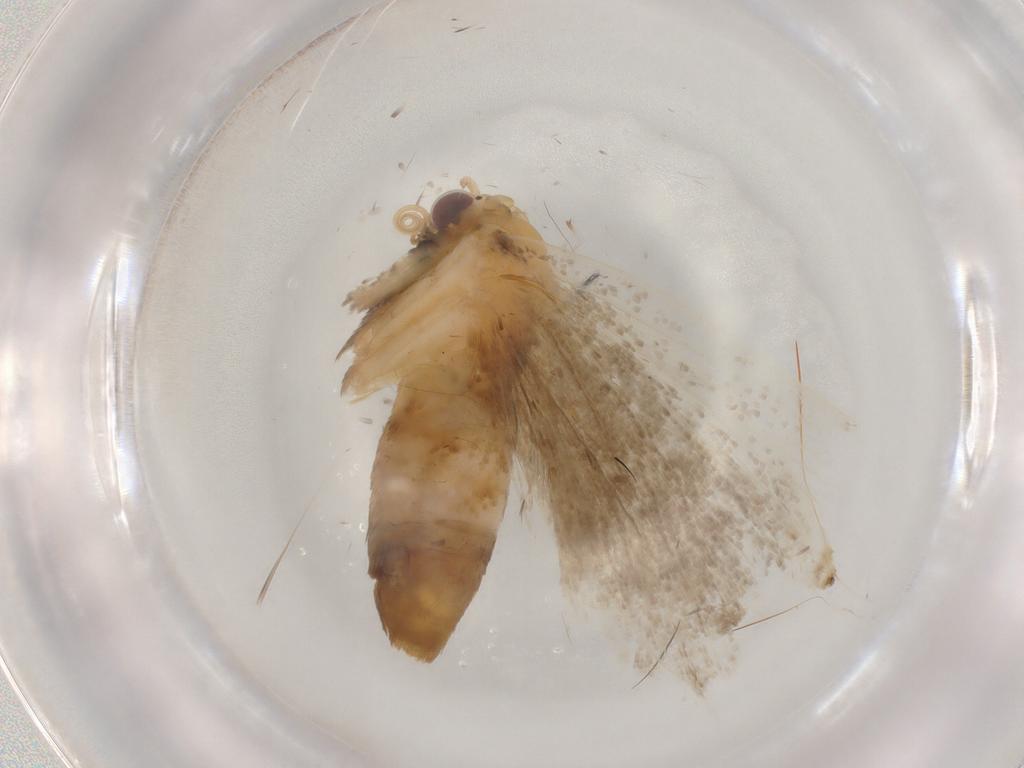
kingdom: Animalia
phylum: Arthropoda
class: Insecta
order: Lepidoptera
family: Erebidae
